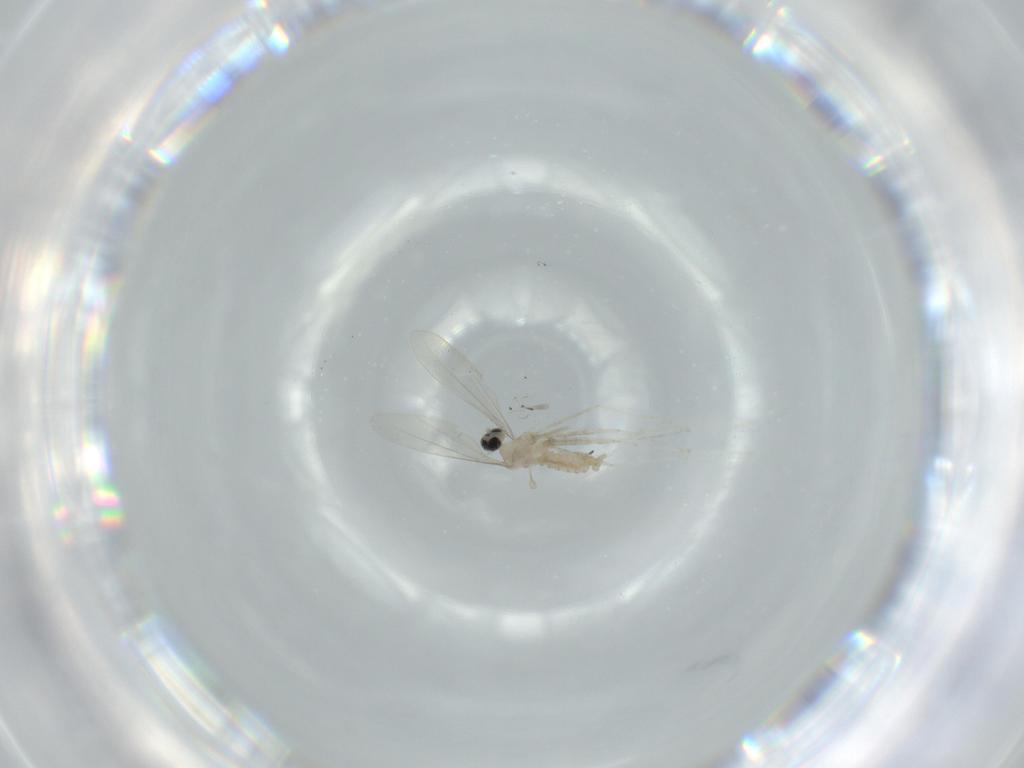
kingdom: Animalia
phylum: Arthropoda
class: Insecta
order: Diptera
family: Cecidomyiidae
